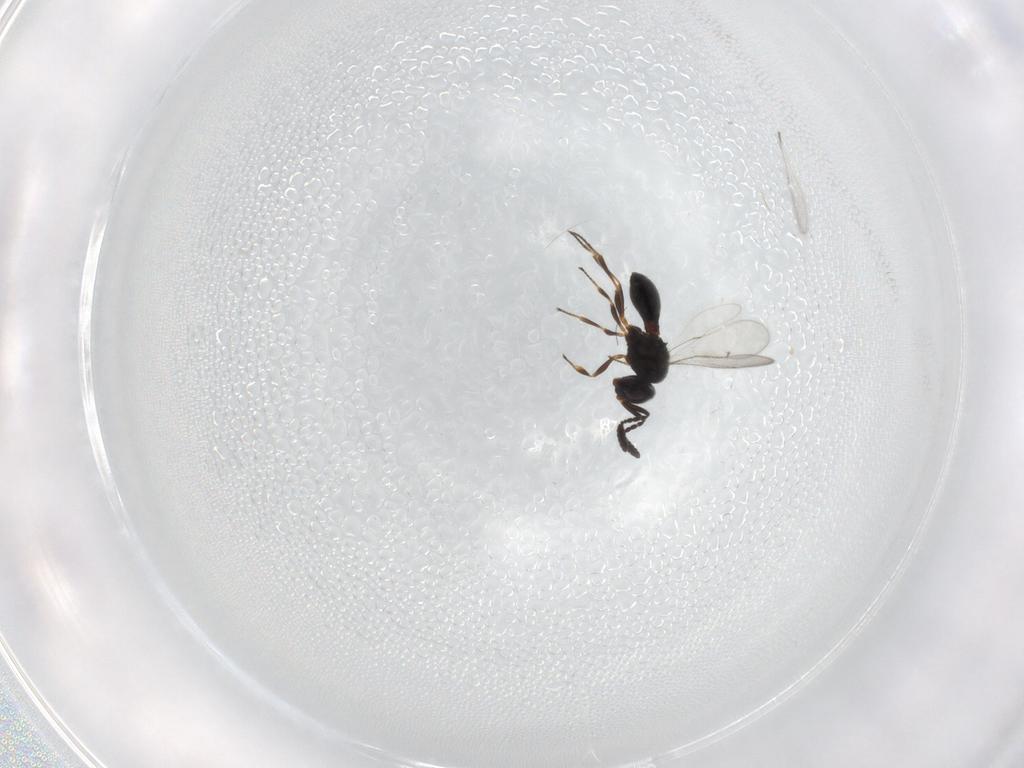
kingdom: Animalia
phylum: Arthropoda
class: Insecta
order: Hymenoptera
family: Scelionidae
